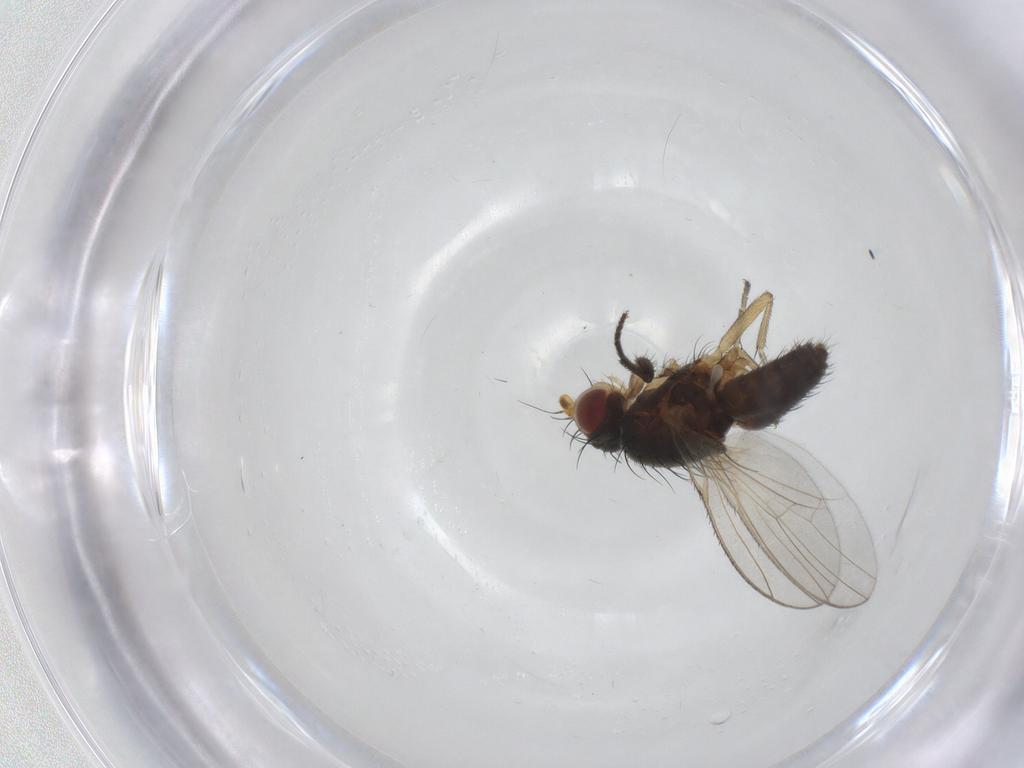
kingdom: Animalia
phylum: Arthropoda
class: Insecta
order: Diptera
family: Heleomyzidae
